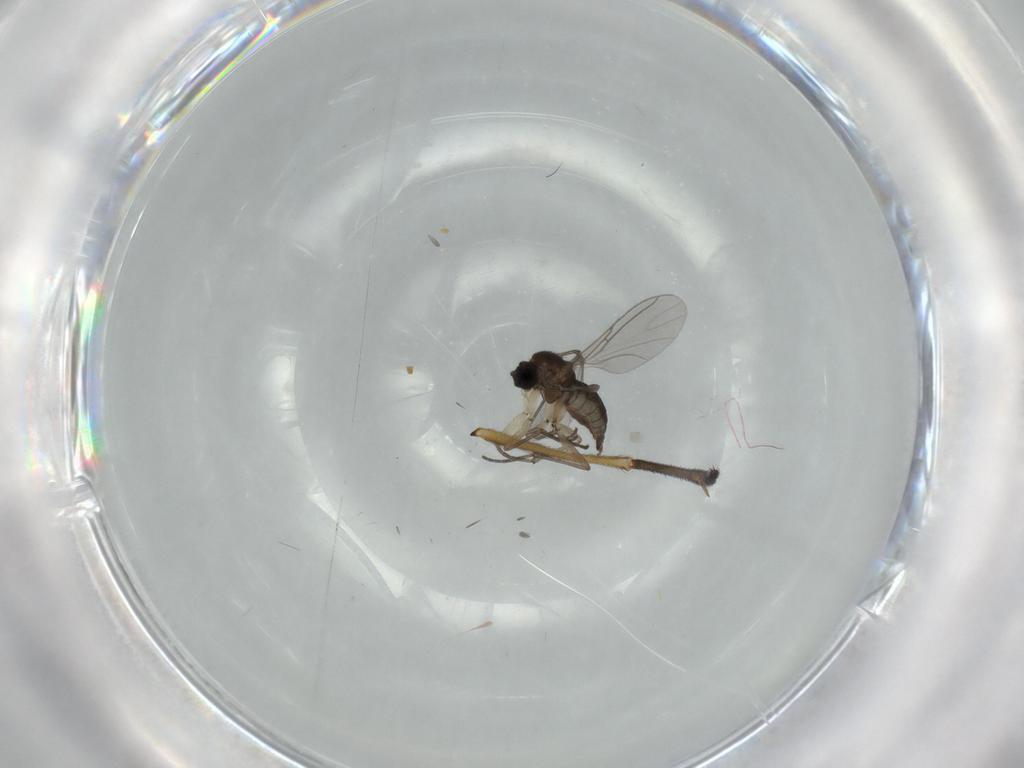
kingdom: Animalia
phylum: Arthropoda
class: Insecta
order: Diptera
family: Sciaridae
